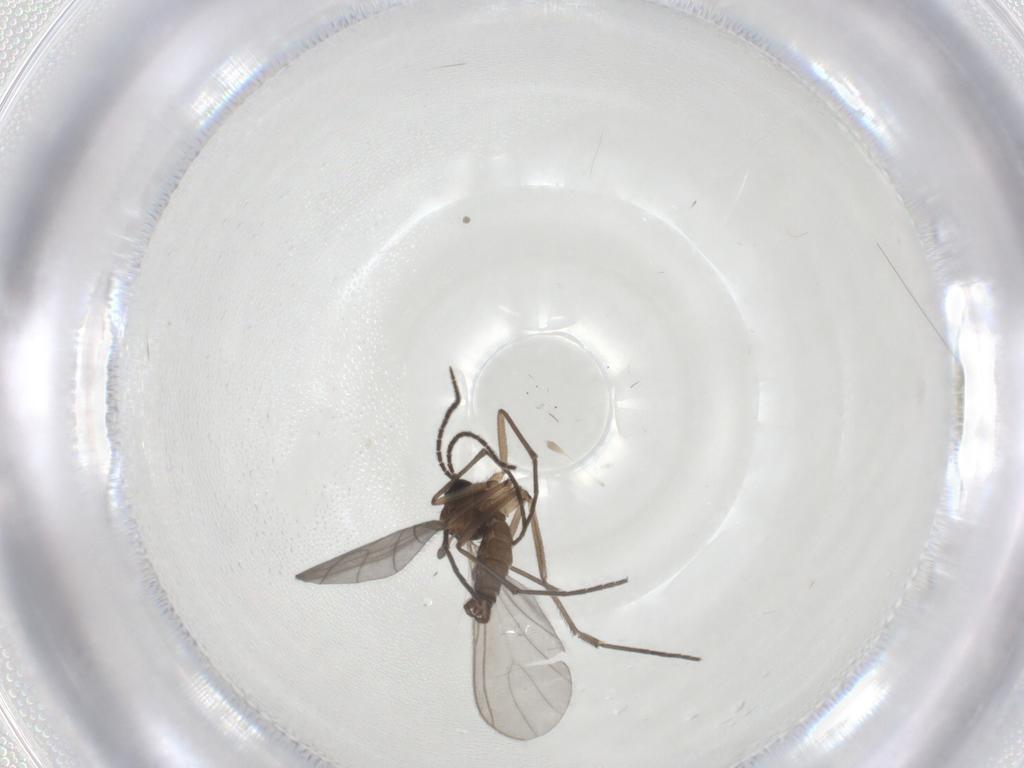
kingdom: Animalia
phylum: Arthropoda
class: Insecta
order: Diptera
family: Sciaridae
